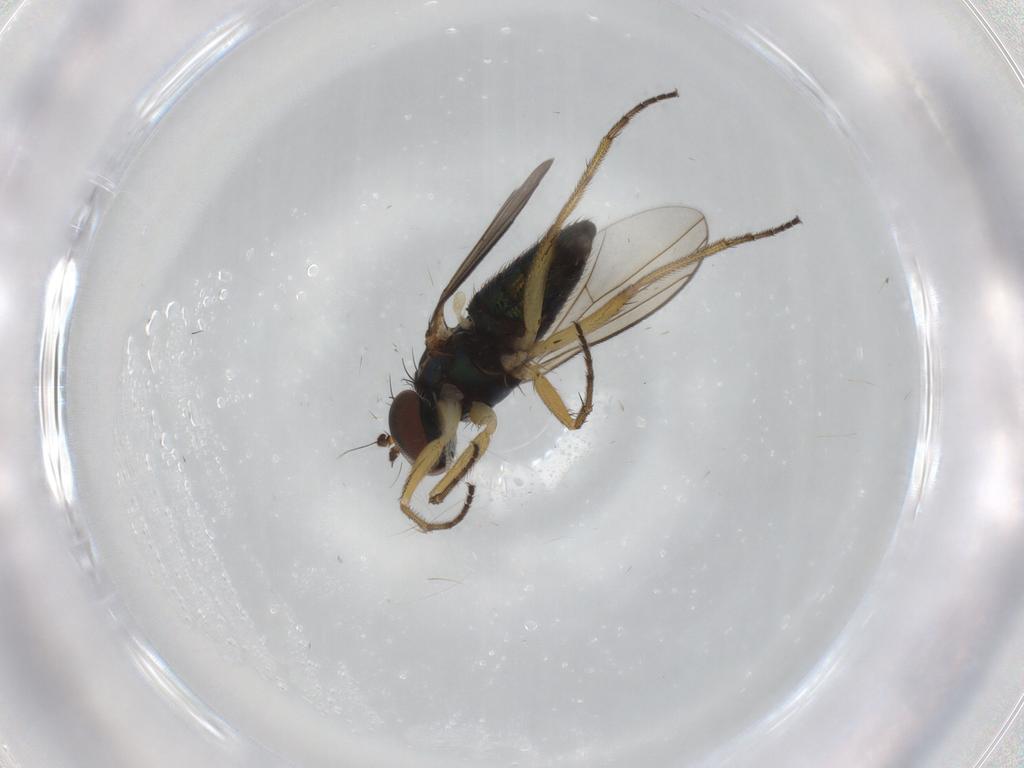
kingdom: Animalia
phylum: Arthropoda
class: Insecta
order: Diptera
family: Dolichopodidae
